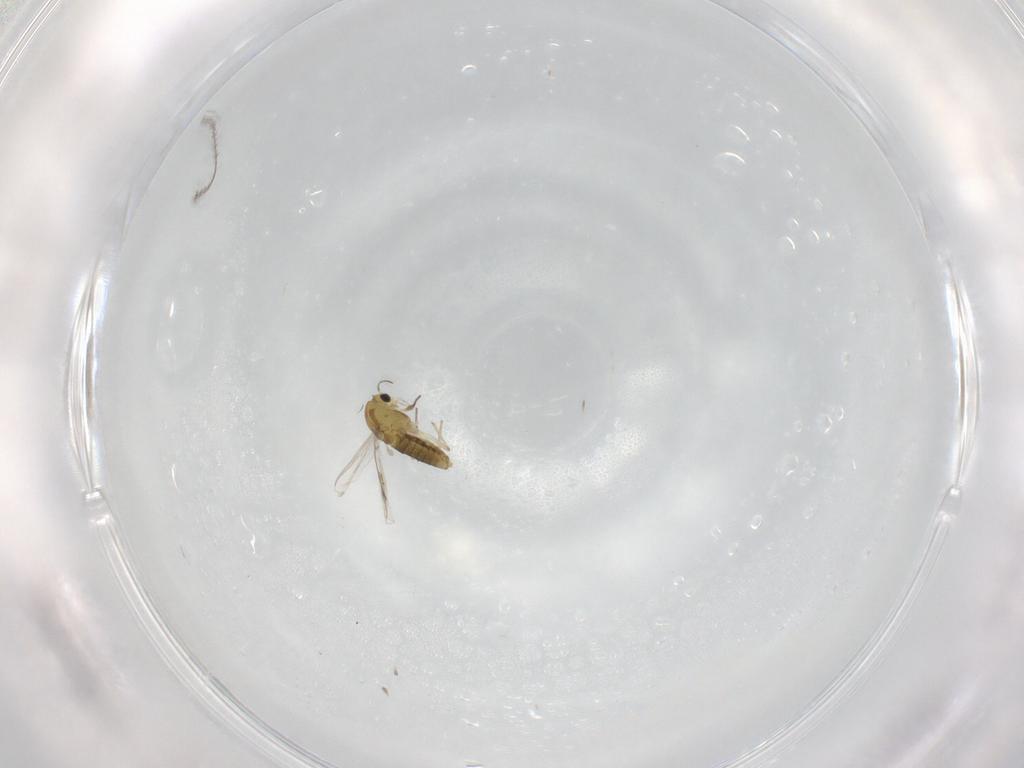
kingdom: Animalia
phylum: Arthropoda
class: Insecta
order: Diptera
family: Chironomidae
